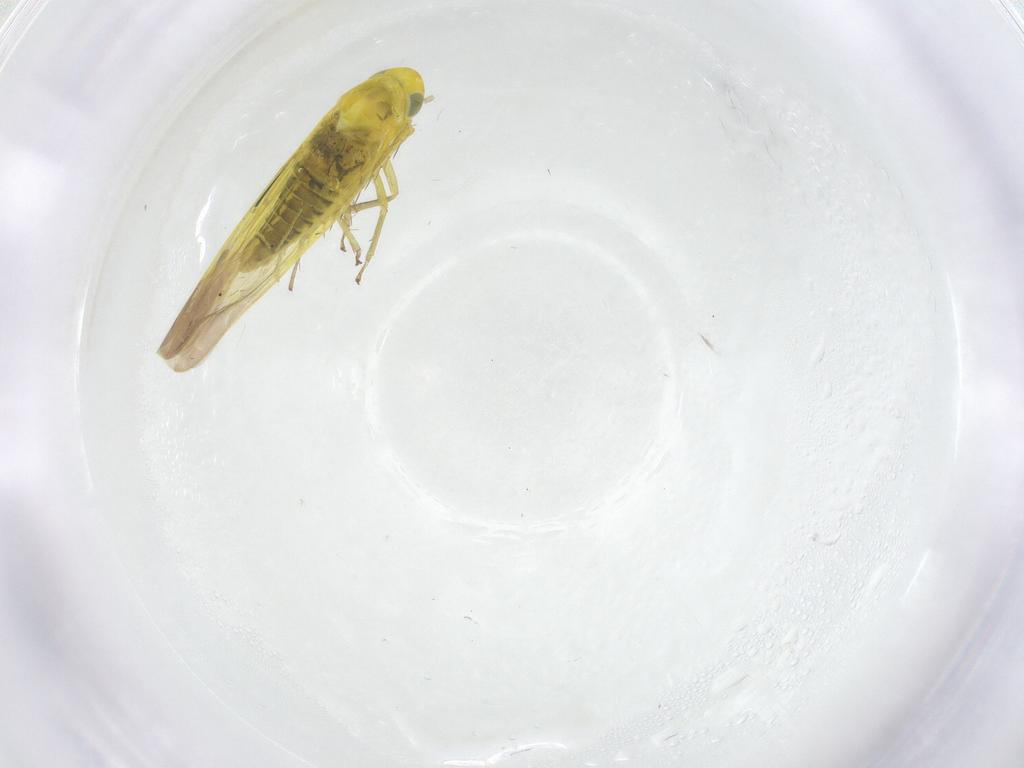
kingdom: Animalia
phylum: Arthropoda
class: Insecta
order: Hemiptera
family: Cicadellidae
